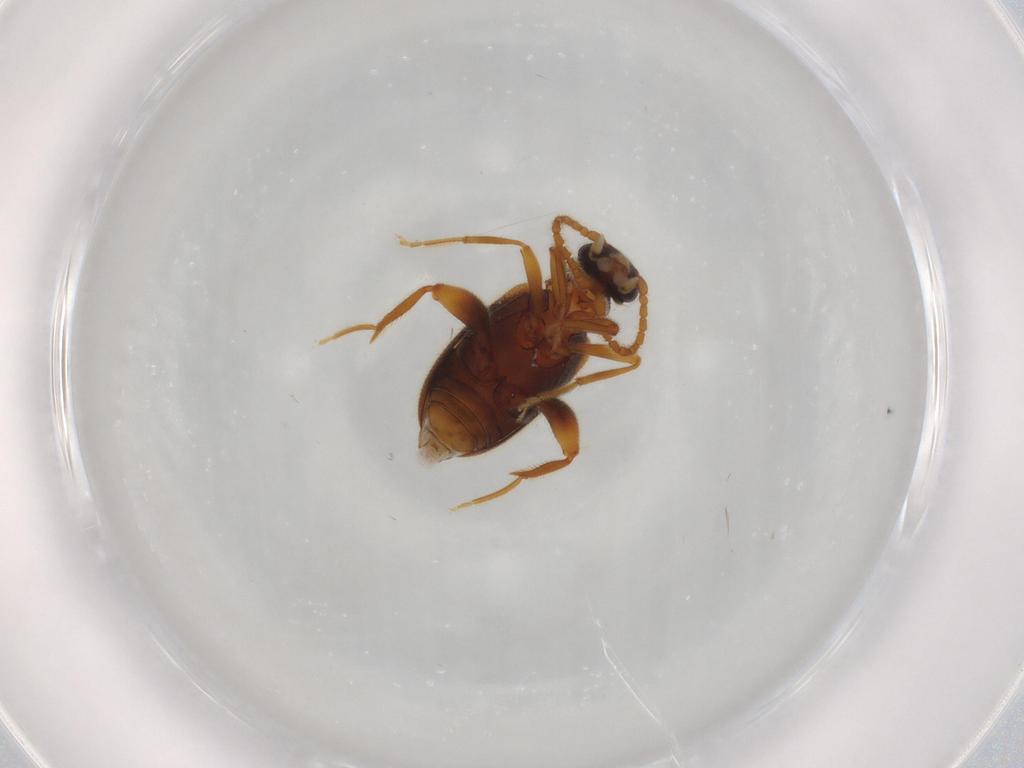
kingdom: Animalia
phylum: Arthropoda
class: Insecta
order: Coleoptera
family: Aderidae
